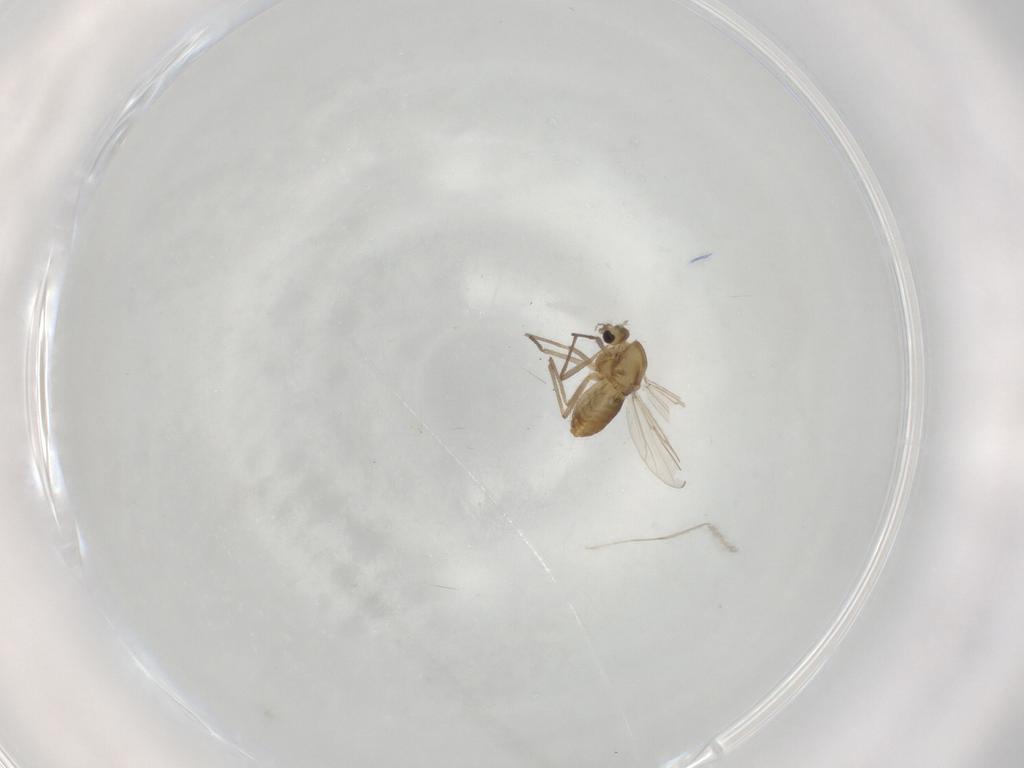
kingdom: Animalia
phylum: Arthropoda
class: Insecta
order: Diptera
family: Chironomidae
